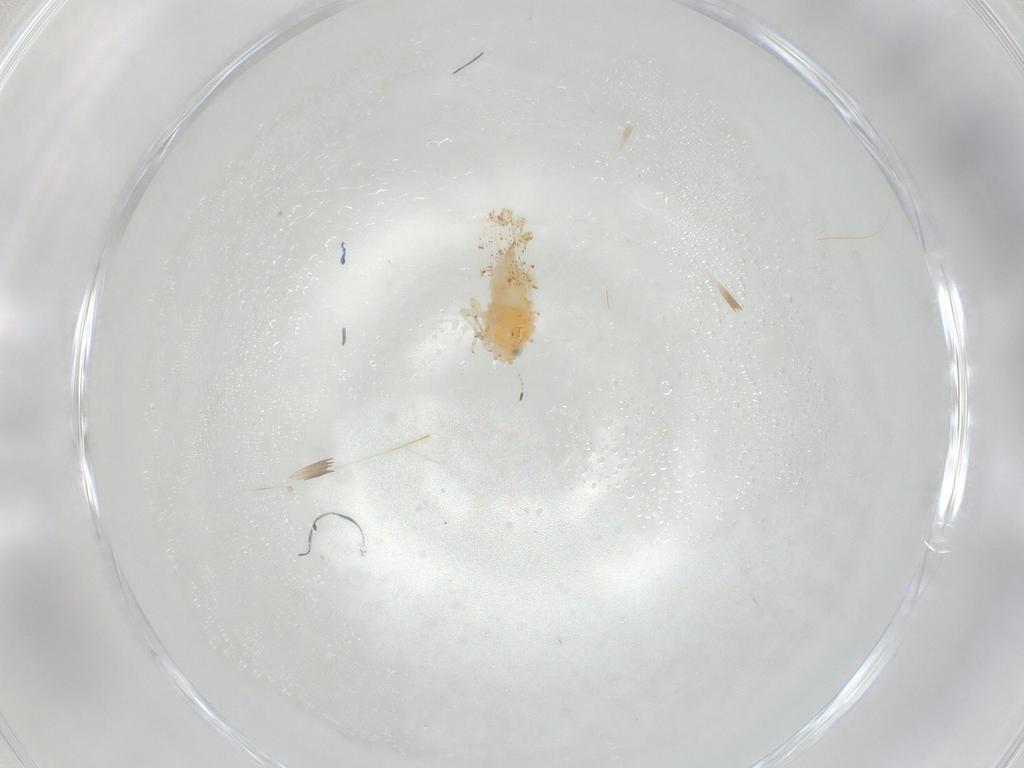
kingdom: Animalia
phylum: Arthropoda
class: Insecta
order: Hemiptera
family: Psylloidea_incertae_sedis
